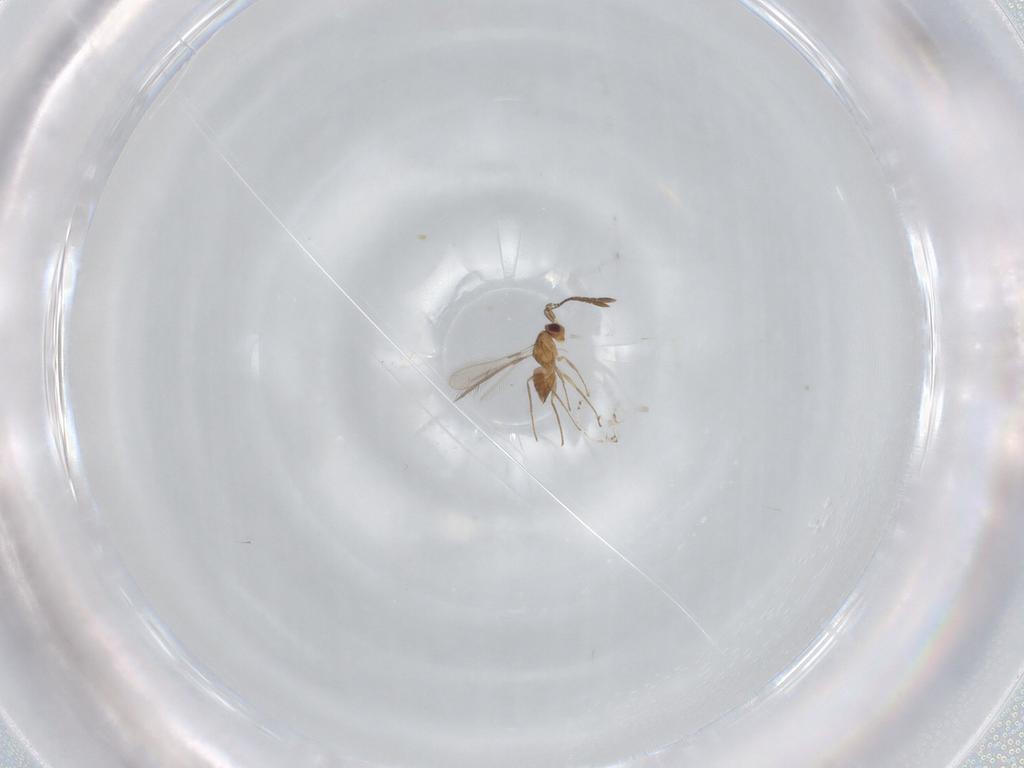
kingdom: Animalia
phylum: Arthropoda
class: Insecta
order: Hymenoptera
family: Mymaridae
